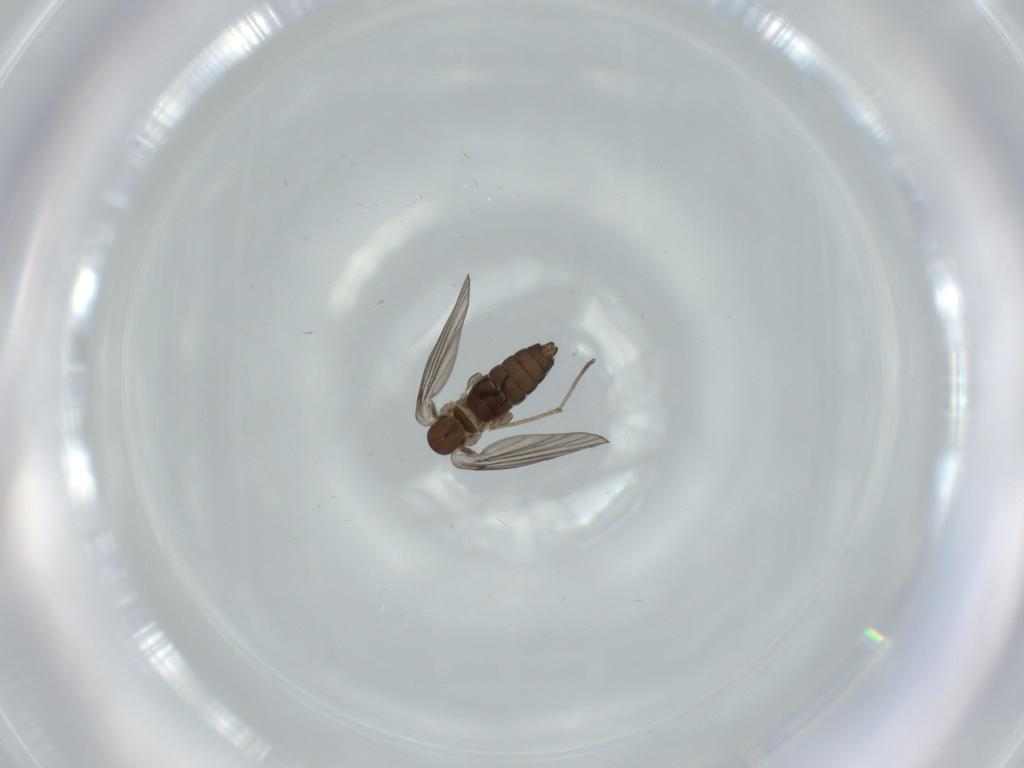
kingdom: Animalia
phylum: Arthropoda
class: Insecta
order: Diptera
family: Psychodidae
